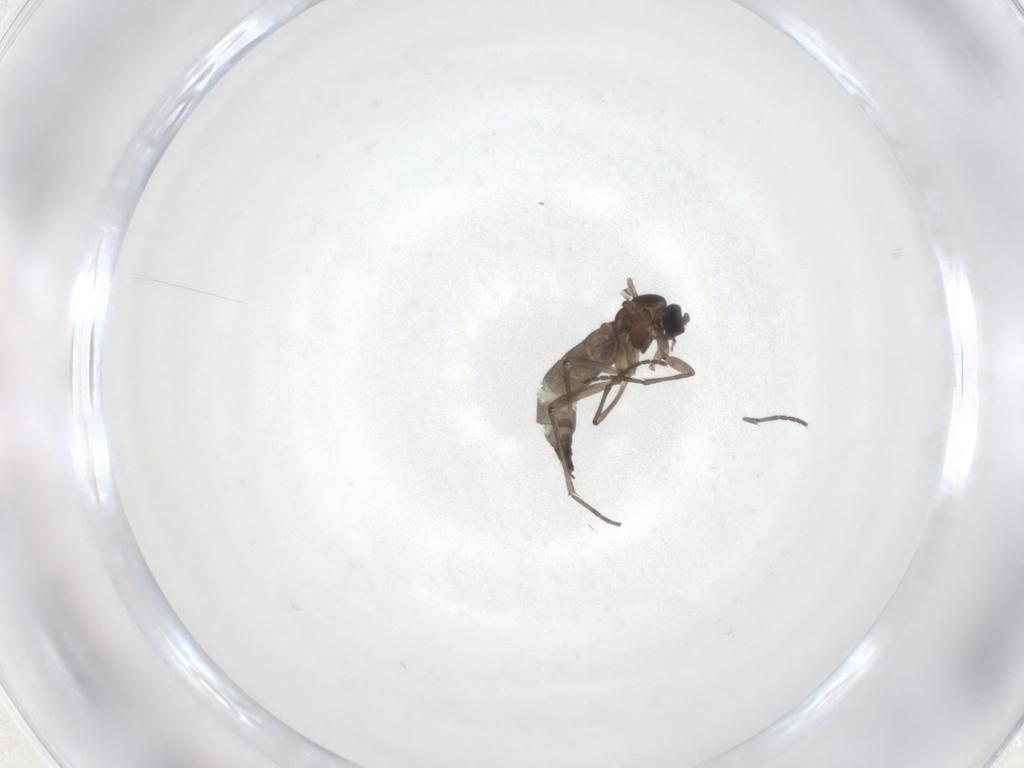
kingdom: Animalia
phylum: Arthropoda
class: Insecta
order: Diptera
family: Sciaridae
